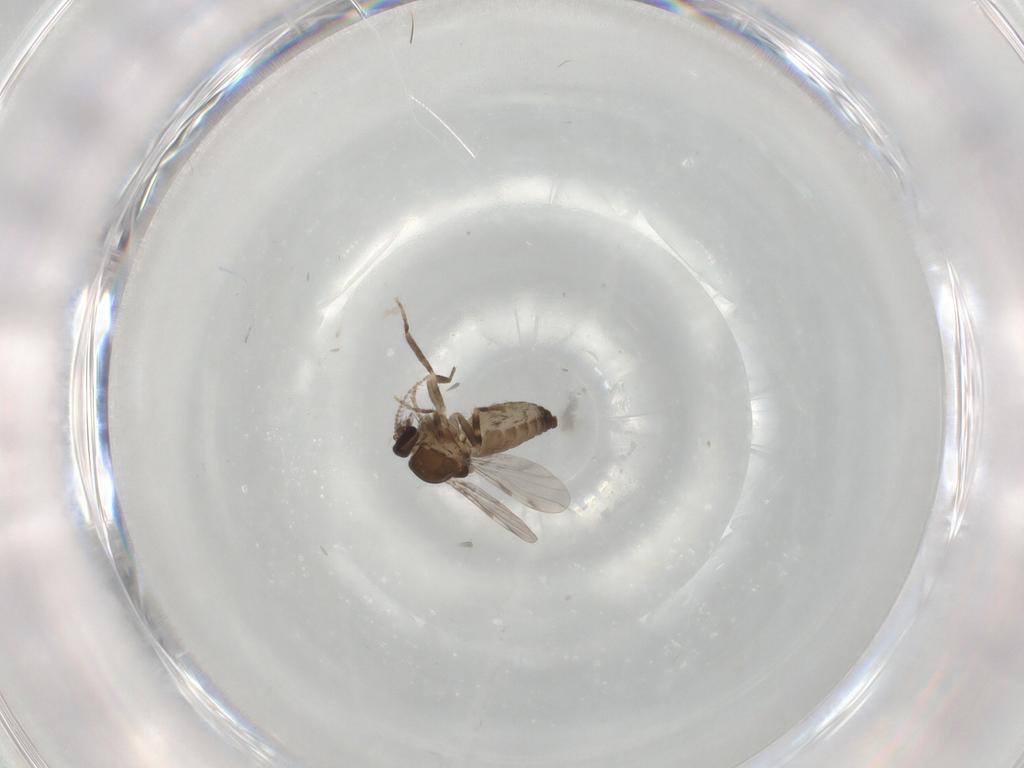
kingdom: Animalia
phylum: Arthropoda
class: Insecta
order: Diptera
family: Ceratopogonidae
